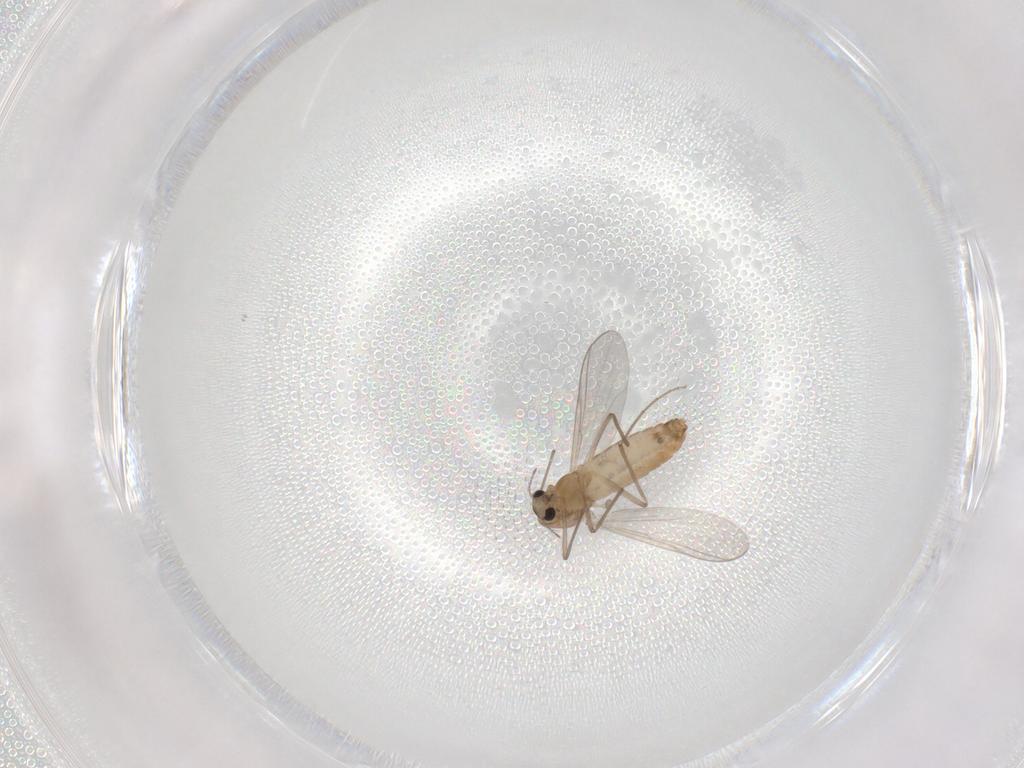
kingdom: Animalia
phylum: Arthropoda
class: Insecta
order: Diptera
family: Chironomidae
